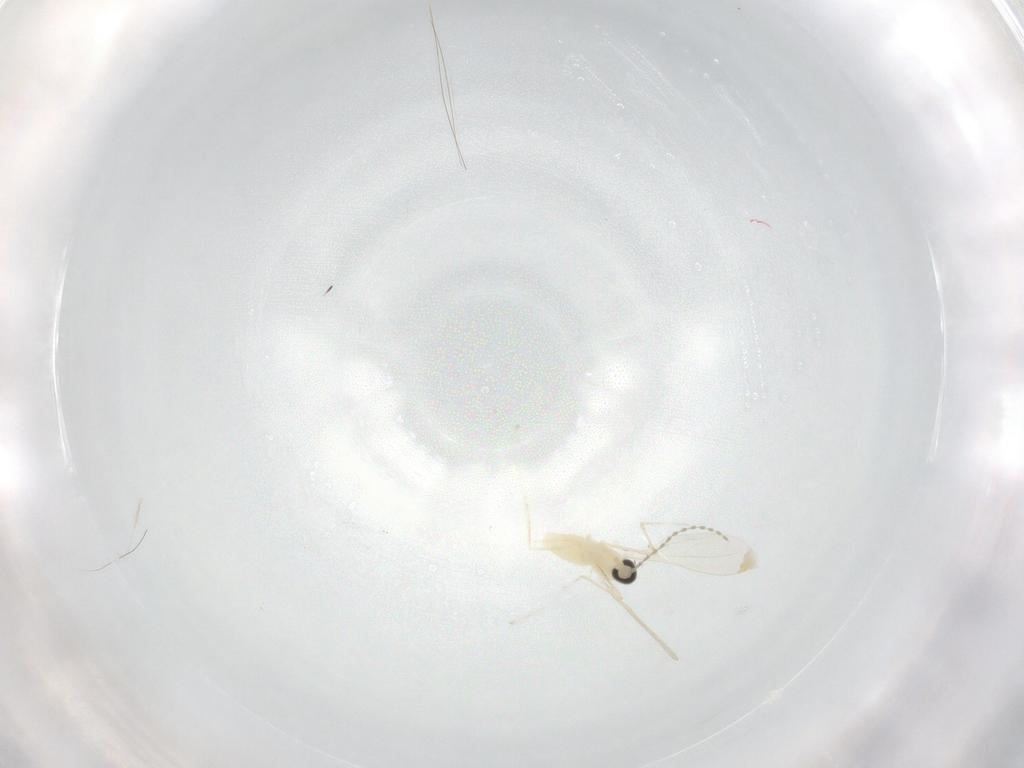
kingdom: Animalia
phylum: Arthropoda
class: Insecta
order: Diptera
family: Cecidomyiidae
